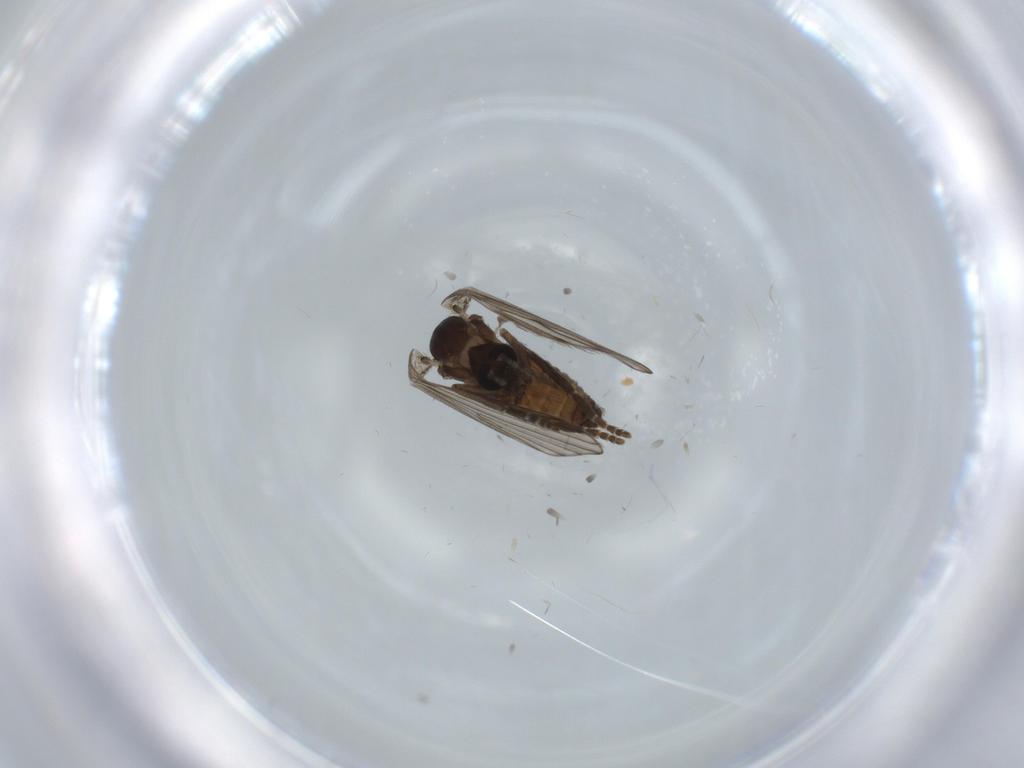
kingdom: Animalia
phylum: Arthropoda
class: Insecta
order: Diptera
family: Psychodidae
